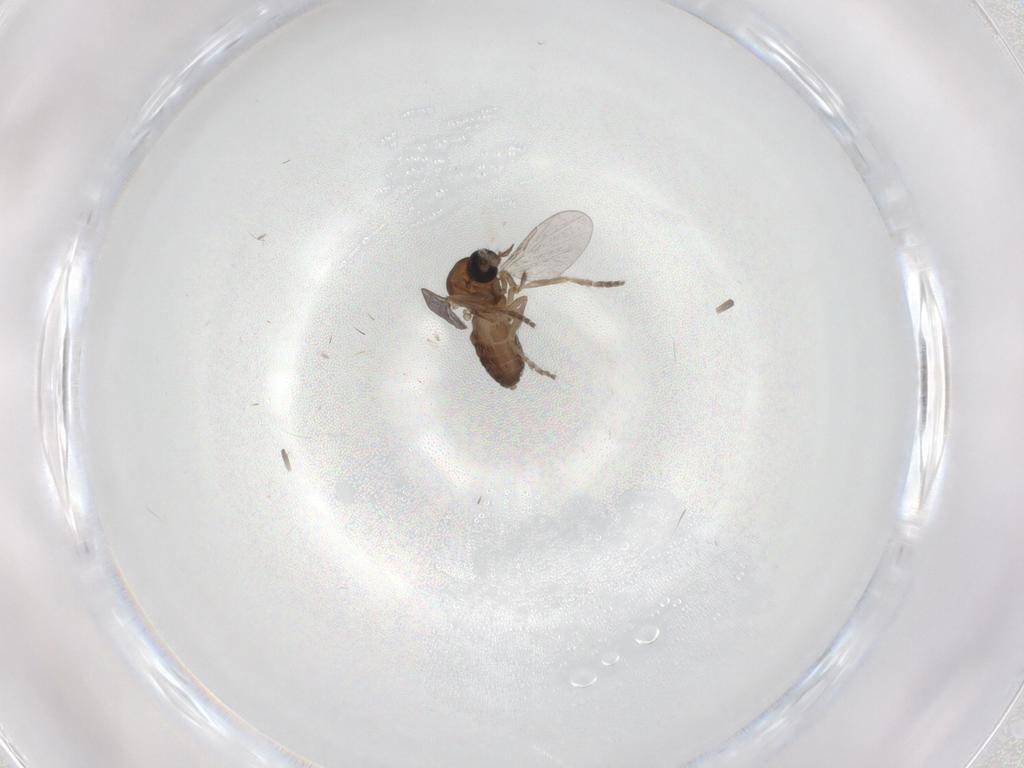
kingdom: Animalia
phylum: Arthropoda
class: Insecta
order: Diptera
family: Ceratopogonidae
